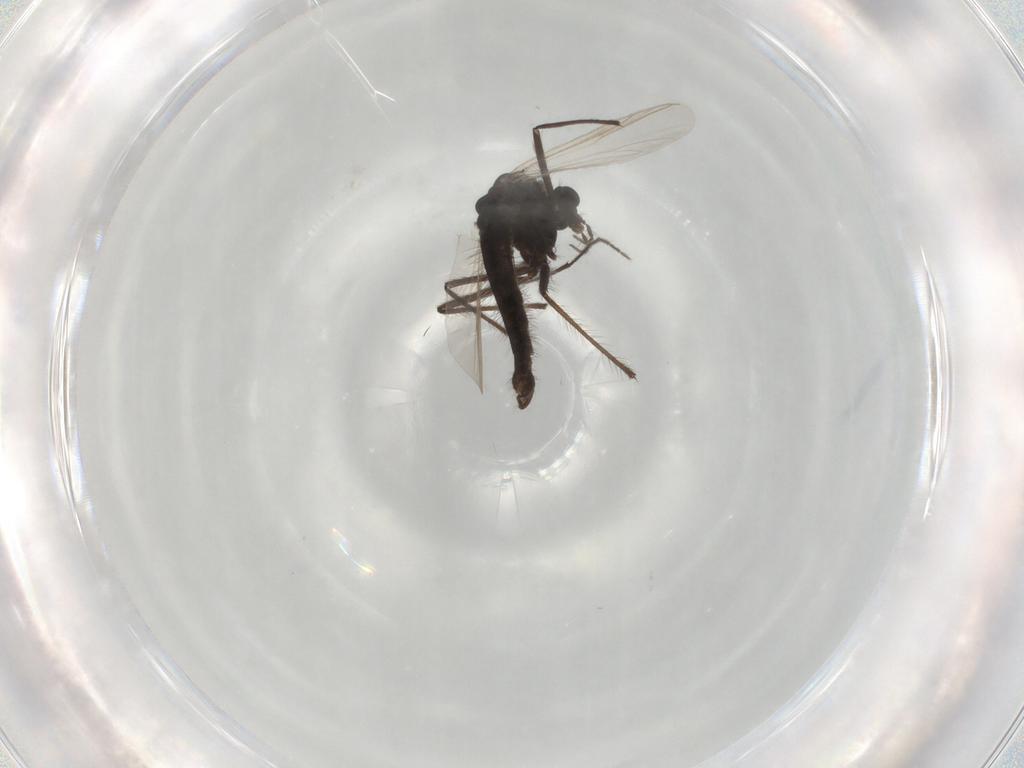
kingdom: Animalia
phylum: Arthropoda
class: Insecta
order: Diptera
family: Chironomidae
